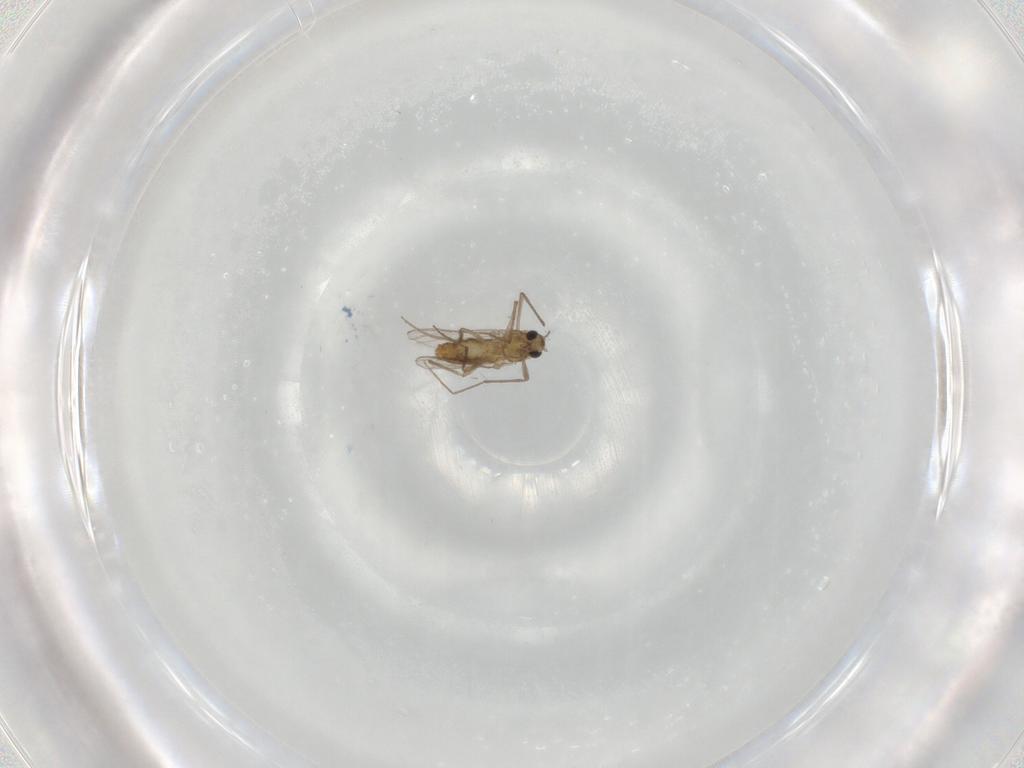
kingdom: Animalia
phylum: Arthropoda
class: Insecta
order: Diptera
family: Chironomidae
